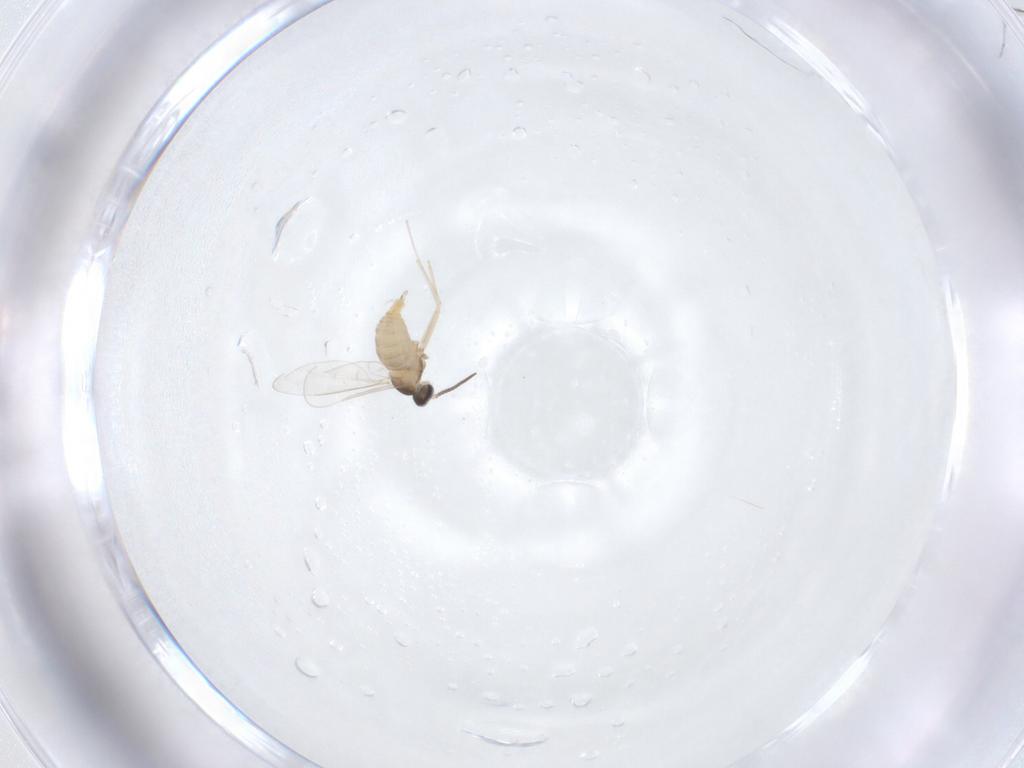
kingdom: Animalia
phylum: Arthropoda
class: Insecta
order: Diptera
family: Cecidomyiidae
